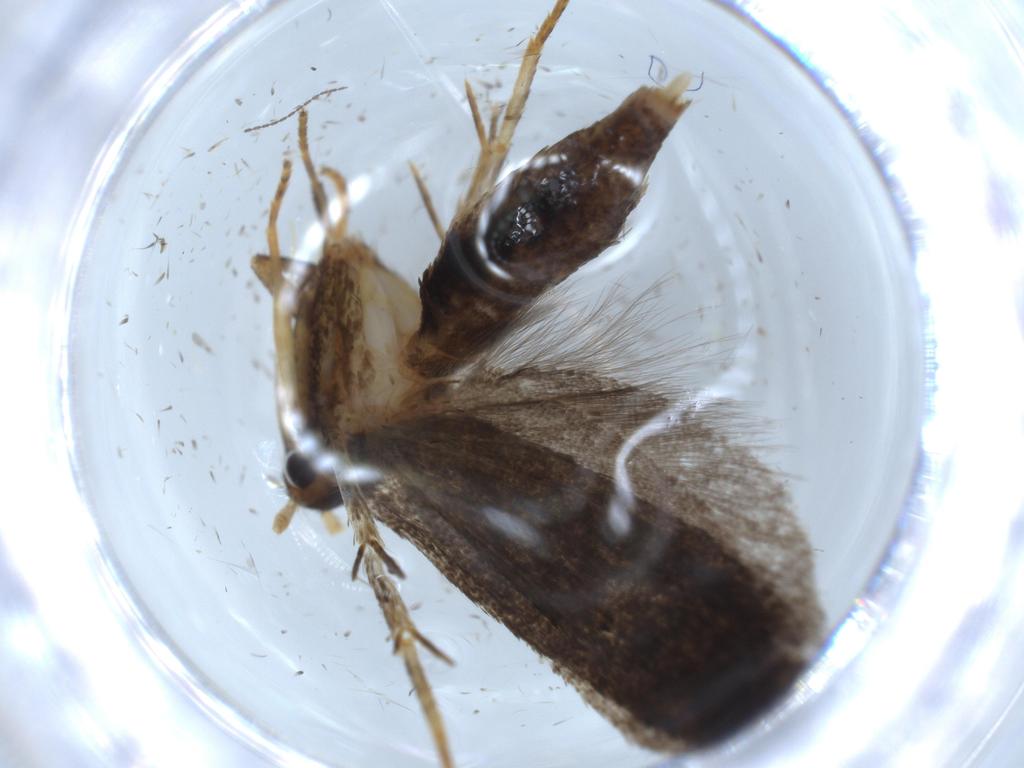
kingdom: Animalia
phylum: Arthropoda
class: Insecta
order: Lepidoptera
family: Lecithoceridae
